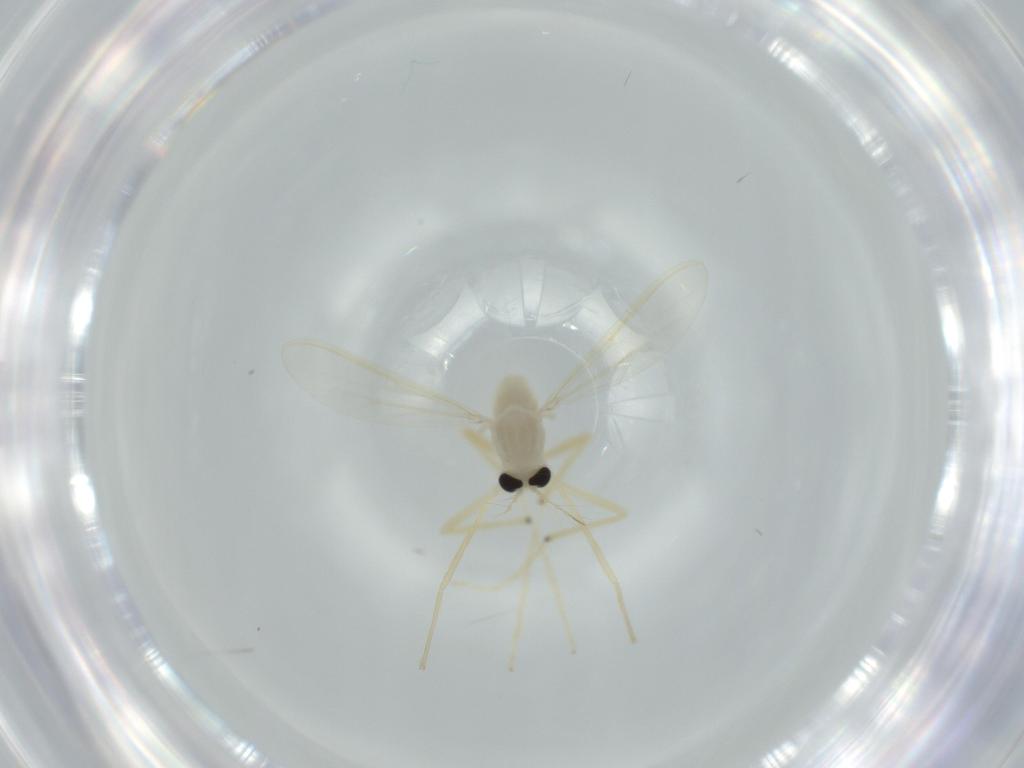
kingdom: Animalia
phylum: Arthropoda
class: Insecta
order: Diptera
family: Chironomidae
